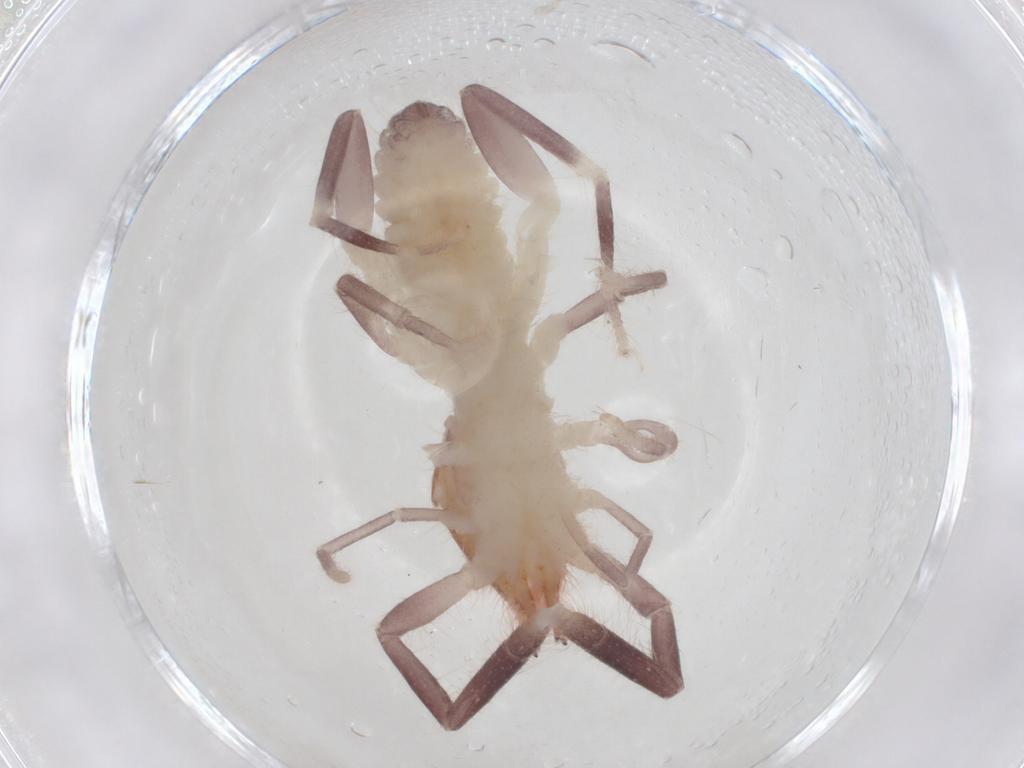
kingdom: Animalia
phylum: Arthropoda
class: Arachnida
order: Solifugae
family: Ammotrechidae
